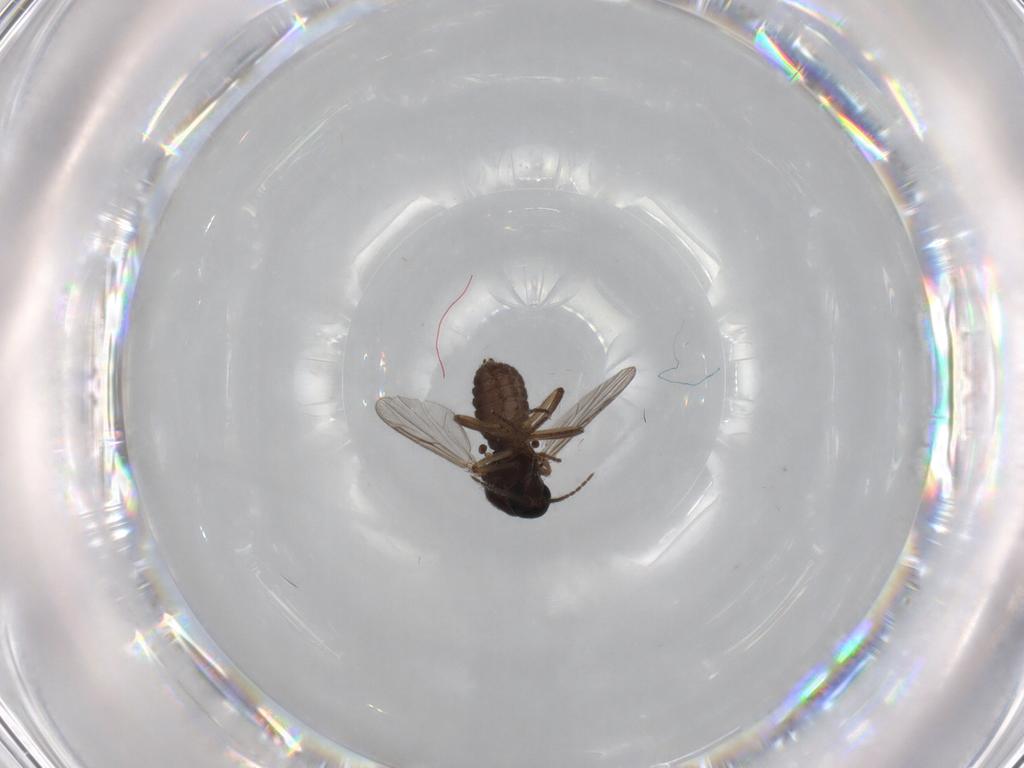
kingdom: Animalia
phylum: Arthropoda
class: Insecta
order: Diptera
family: Ceratopogonidae
